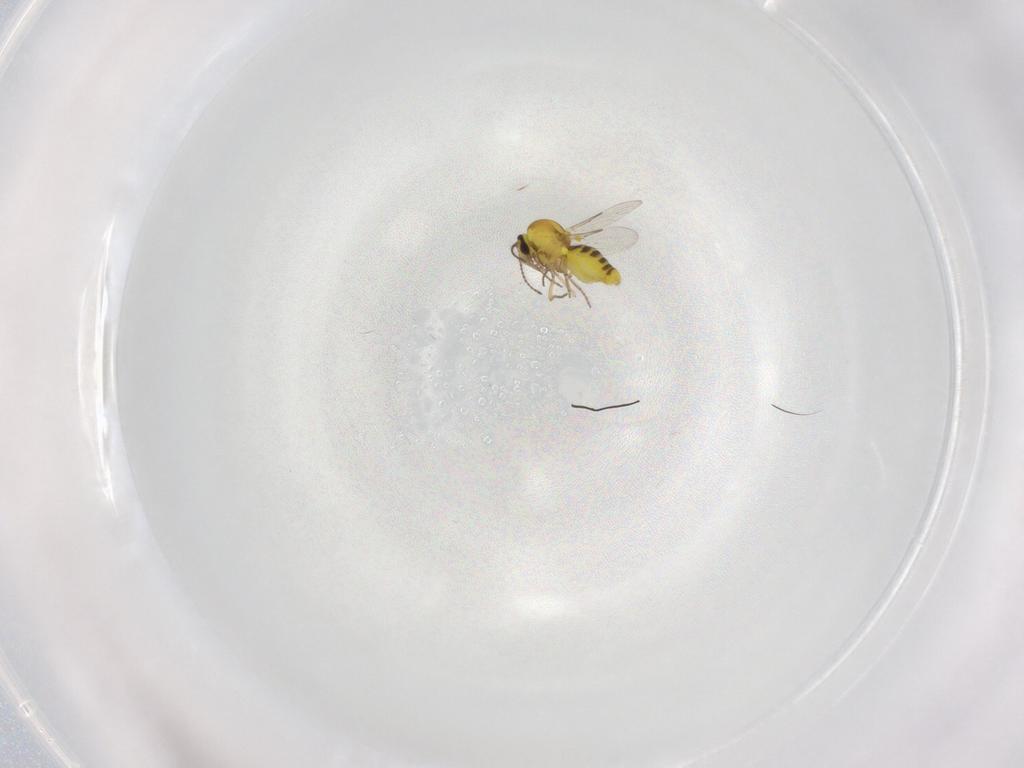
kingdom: Animalia
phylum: Arthropoda
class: Insecta
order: Diptera
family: Ceratopogonidae
